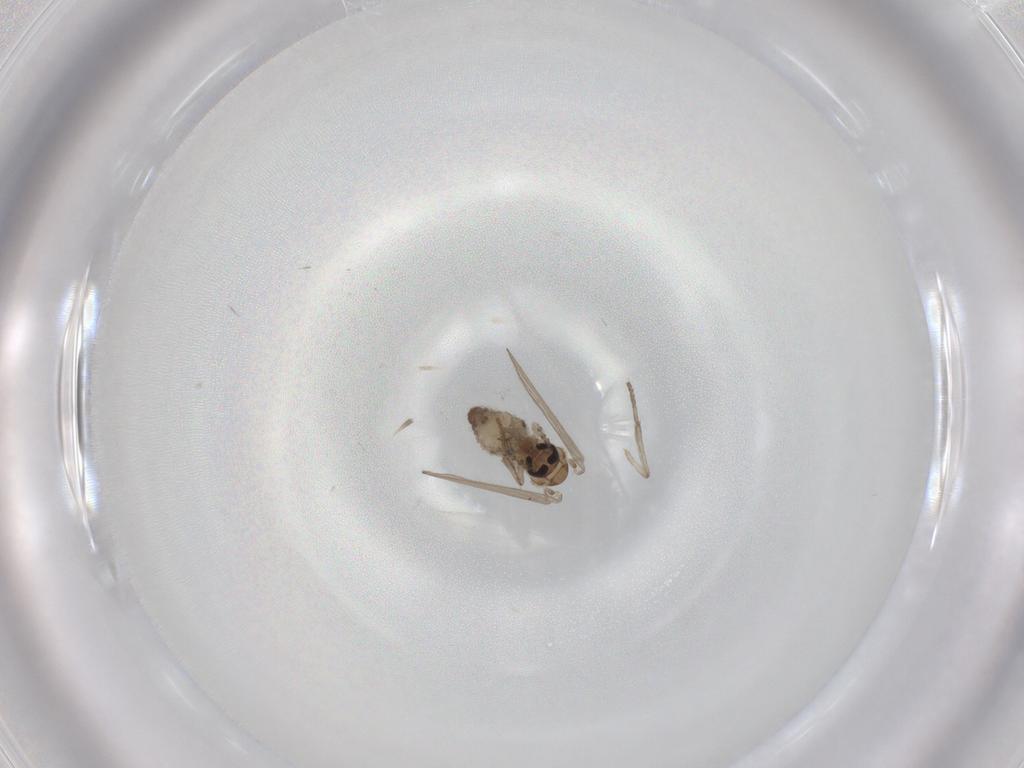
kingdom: Animalia
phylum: Arthropoda
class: Insecta
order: Diptera
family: Psychodidae
